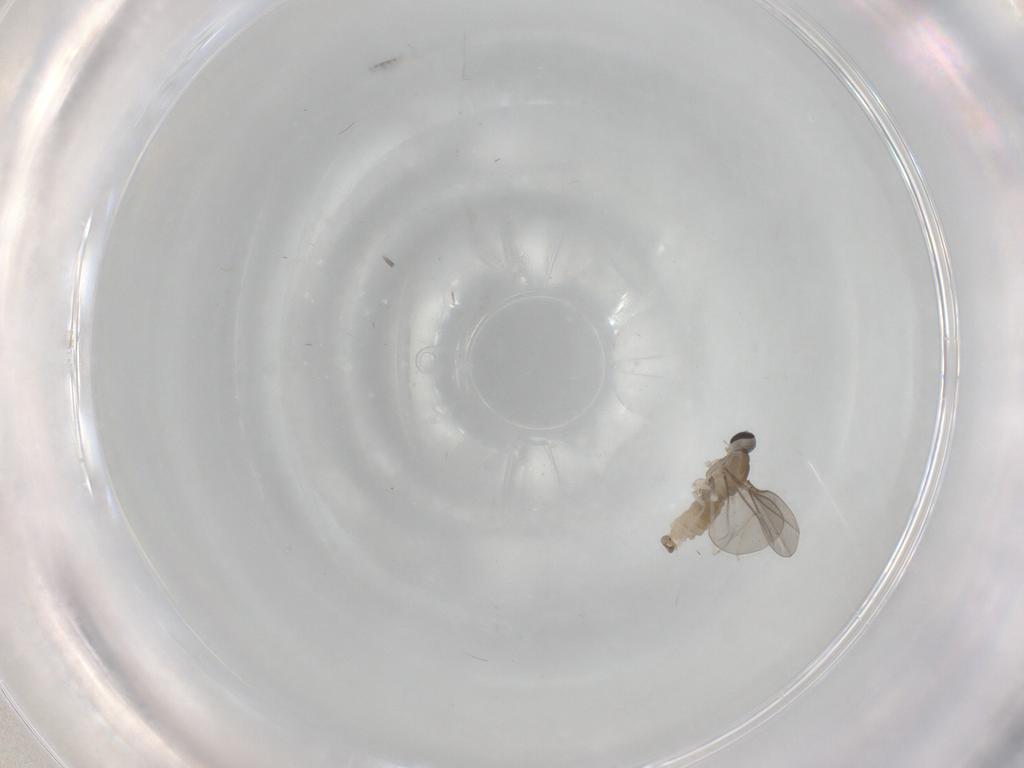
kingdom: Animalia
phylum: Arthropoda
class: Insecta
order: Diptera
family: Cecidomyiidae
